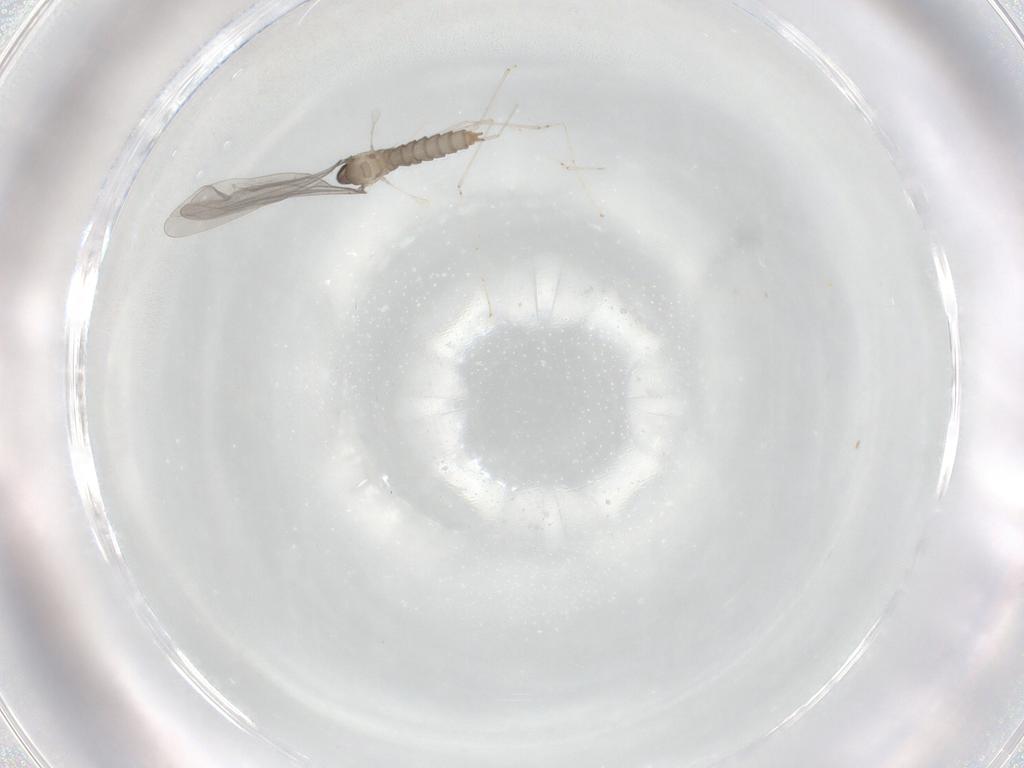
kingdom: Animalia
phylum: Arthropoda
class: Insecta
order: Diptera
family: Cecidomyiidae
